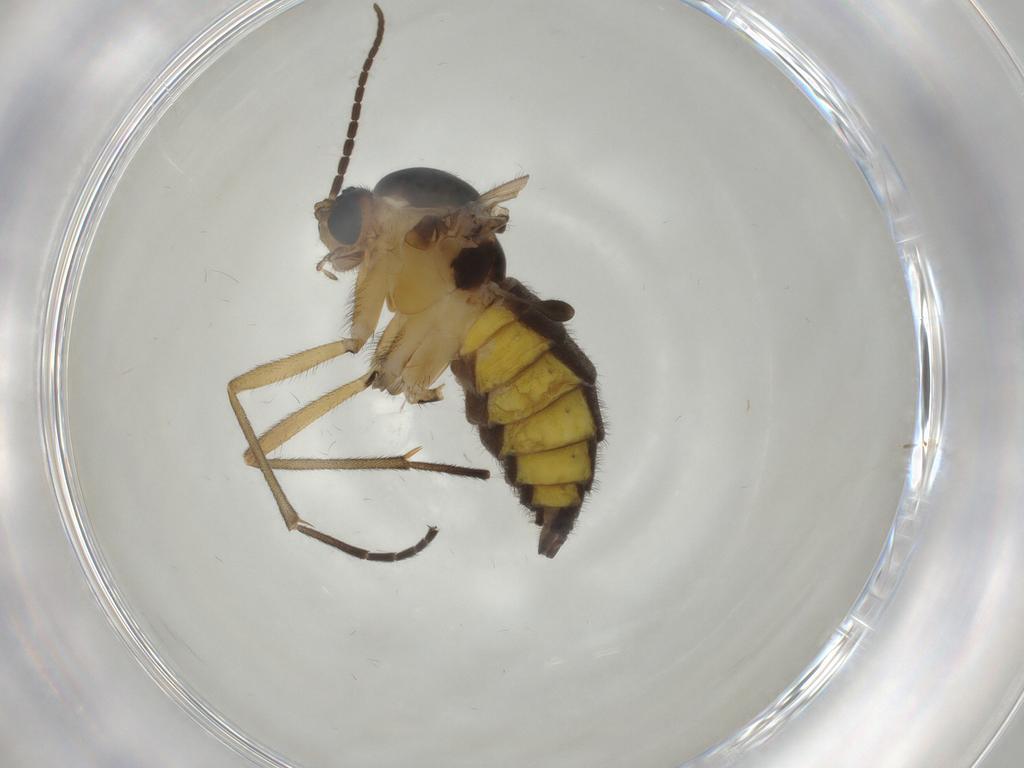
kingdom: Animalia
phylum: Arthropoda
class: Insecta
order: Diptera
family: Sciaridae
